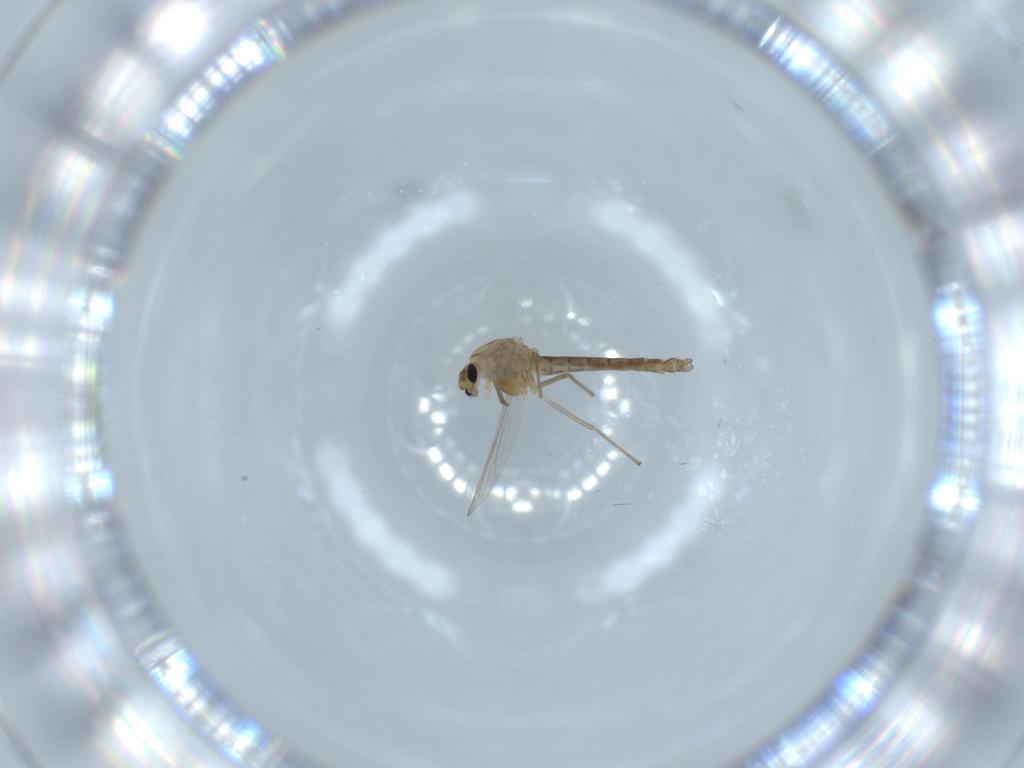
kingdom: Animalia
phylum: Arthropoda
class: Insecta
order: Diptera
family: Chironomidae
